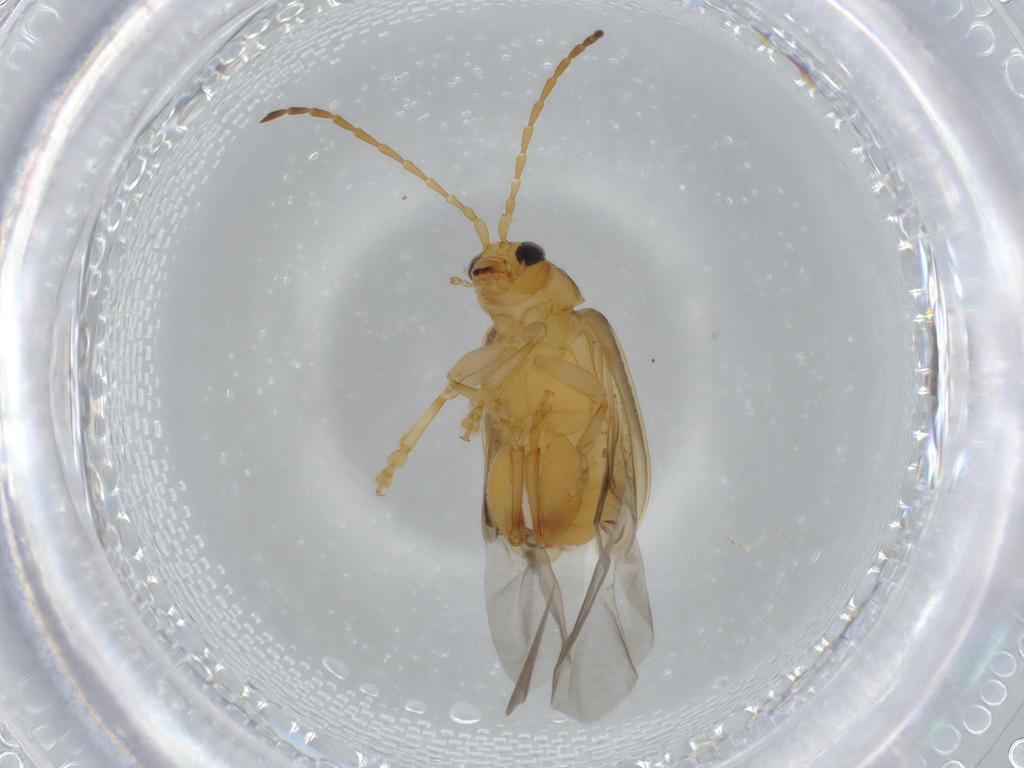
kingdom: Animalia
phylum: Arthropoda
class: Insecta
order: Coleoptera
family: Chrysomelidae
